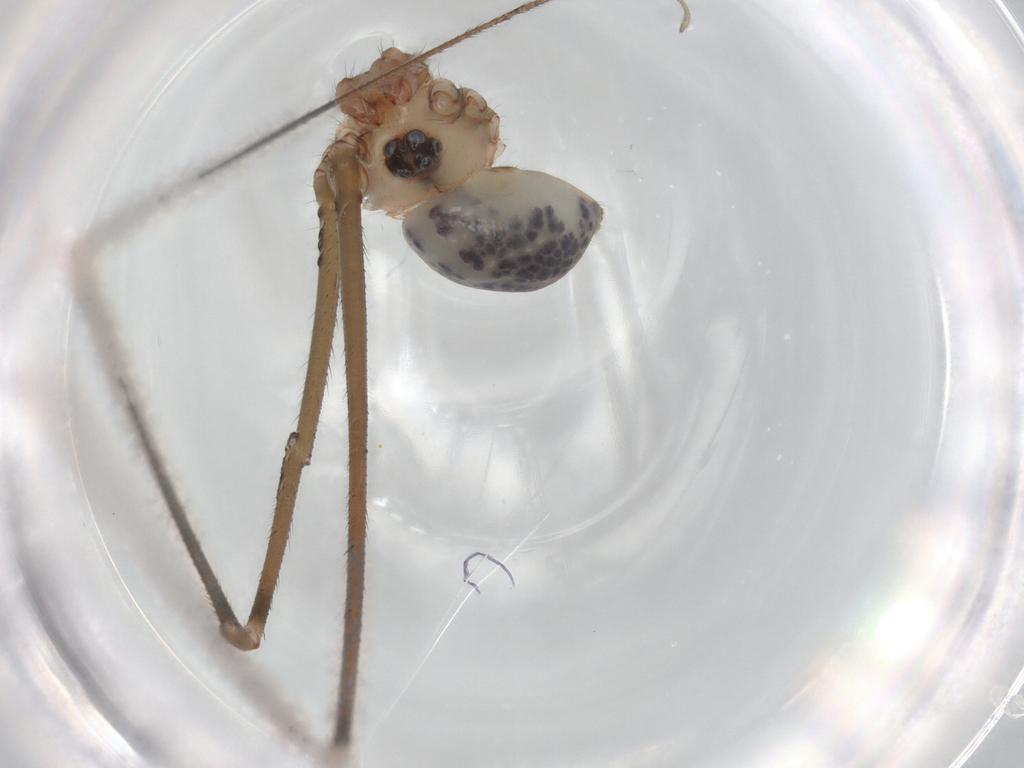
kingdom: Animalia
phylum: Arthropoda
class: Arachnida
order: Araneae
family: Pholcidae
